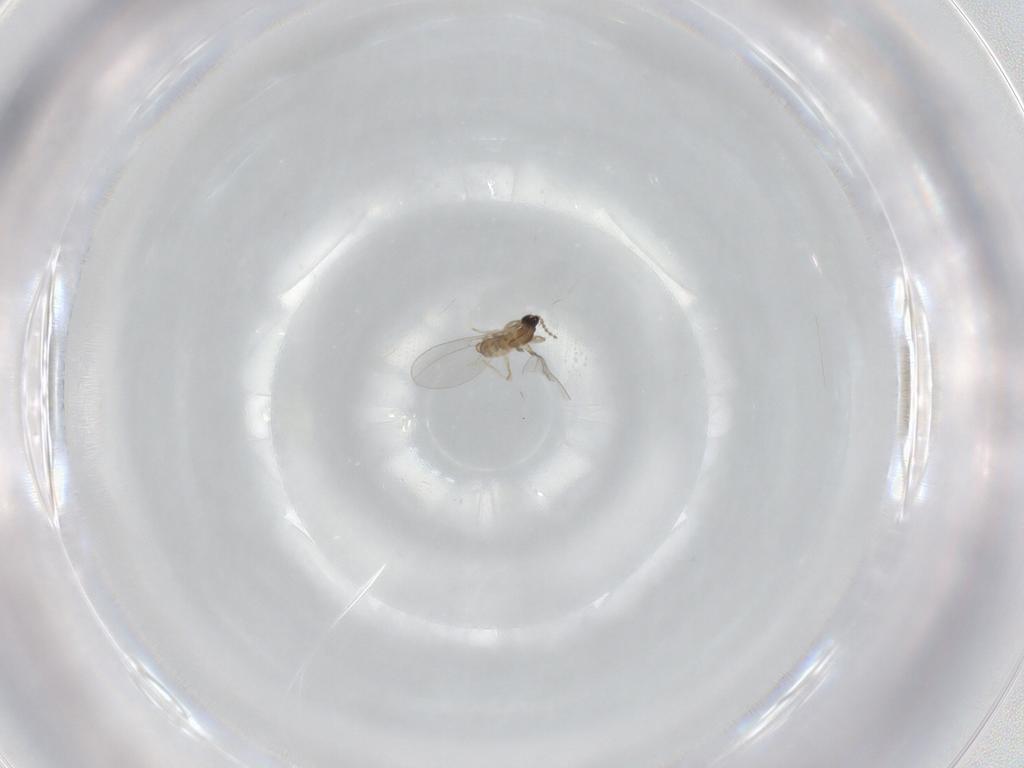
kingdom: Animalia
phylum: Arthropoda
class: Insecta
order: Diptera
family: Cecidomyiidae
